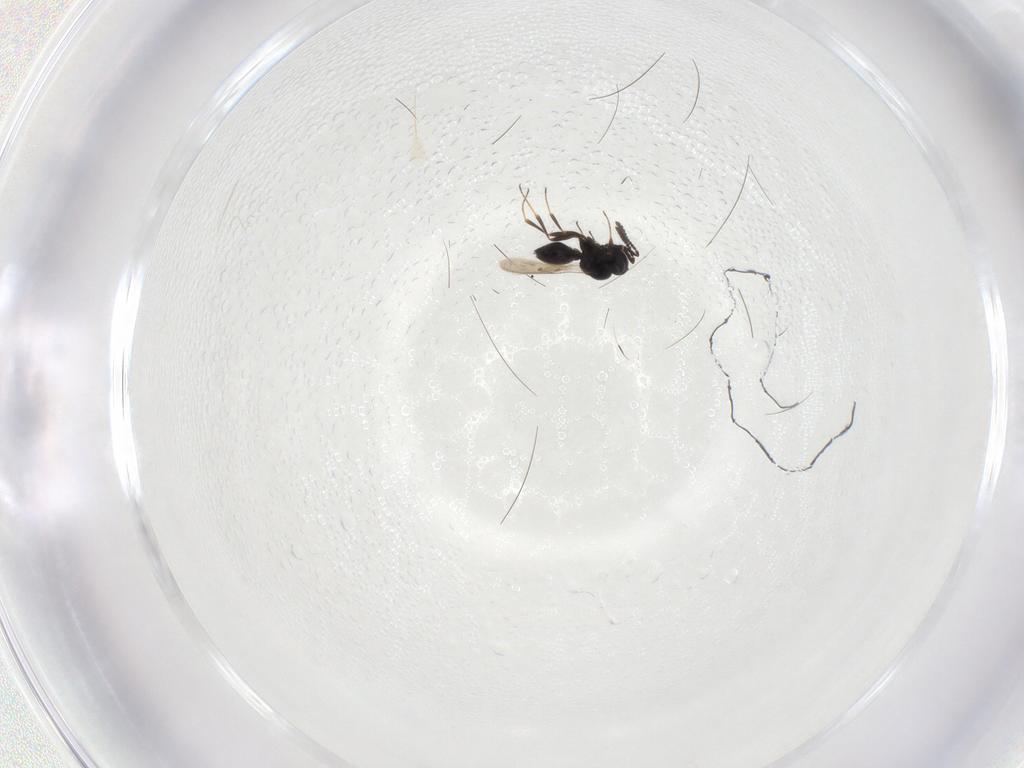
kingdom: Animalia
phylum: Arthropoda
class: Insecta
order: Hymenoptera
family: Scelionidae
